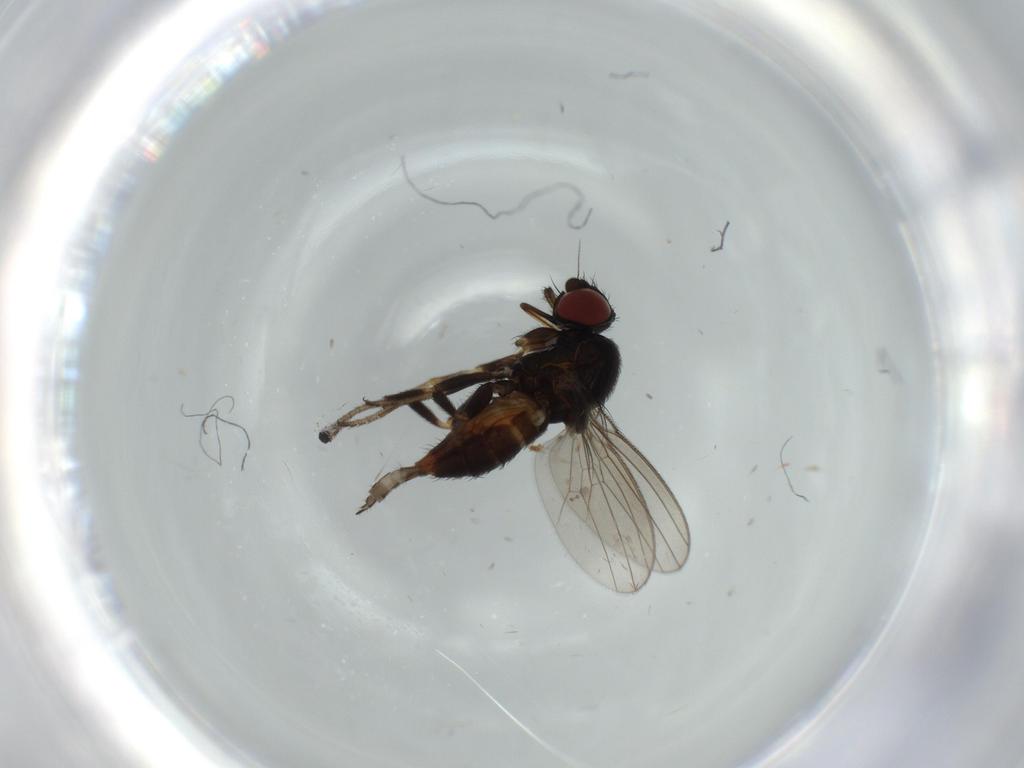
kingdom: Animalia
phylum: Arthropoda
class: Insecta
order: Diptera
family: Milichiidae
